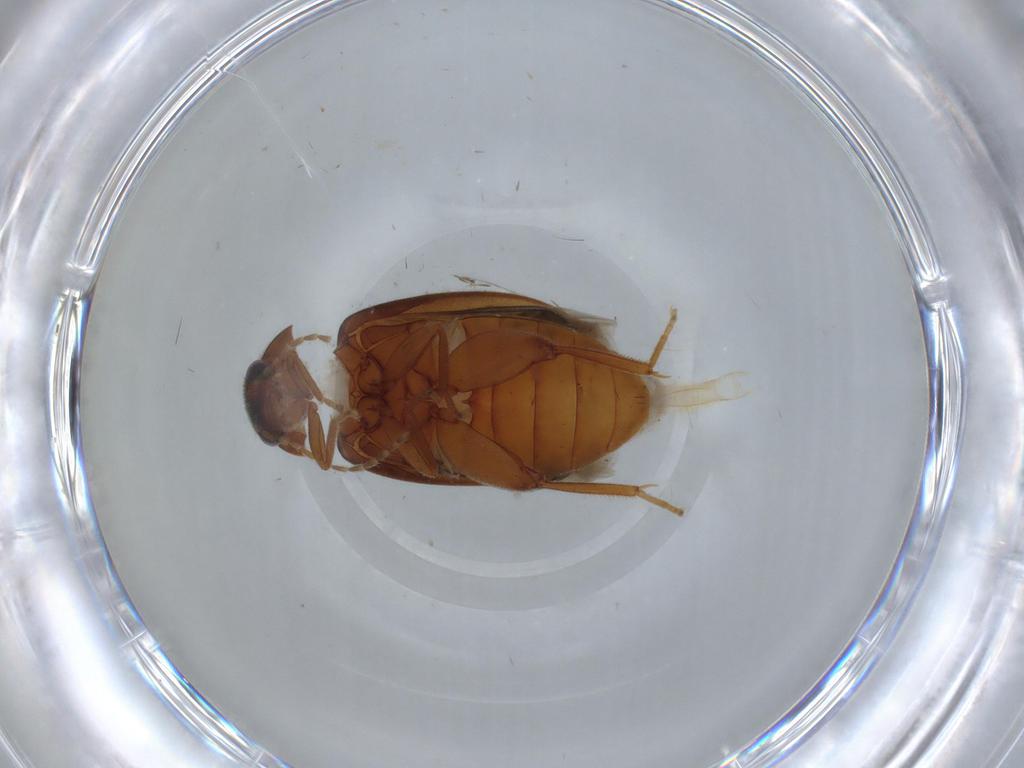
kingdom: Animalia
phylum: Arthropoda
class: Insecta
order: Coleoptera
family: Scirtidae
